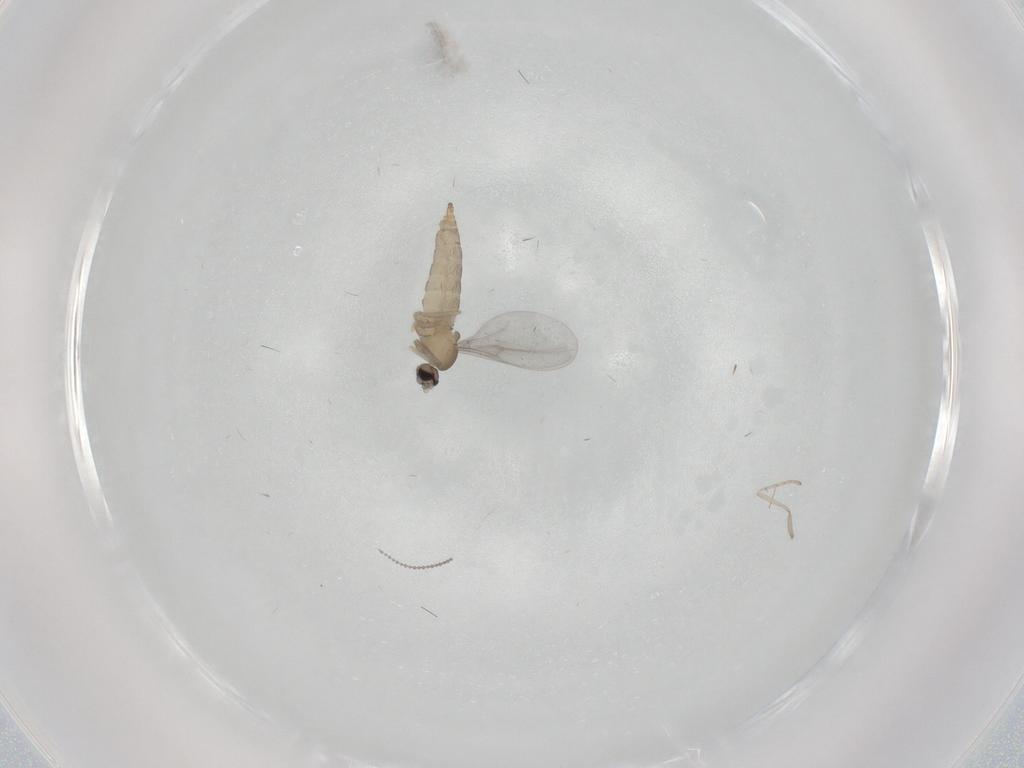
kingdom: Animalia
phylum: Arthropoda
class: Insecta
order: Diptera
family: Cecidomyiidae
